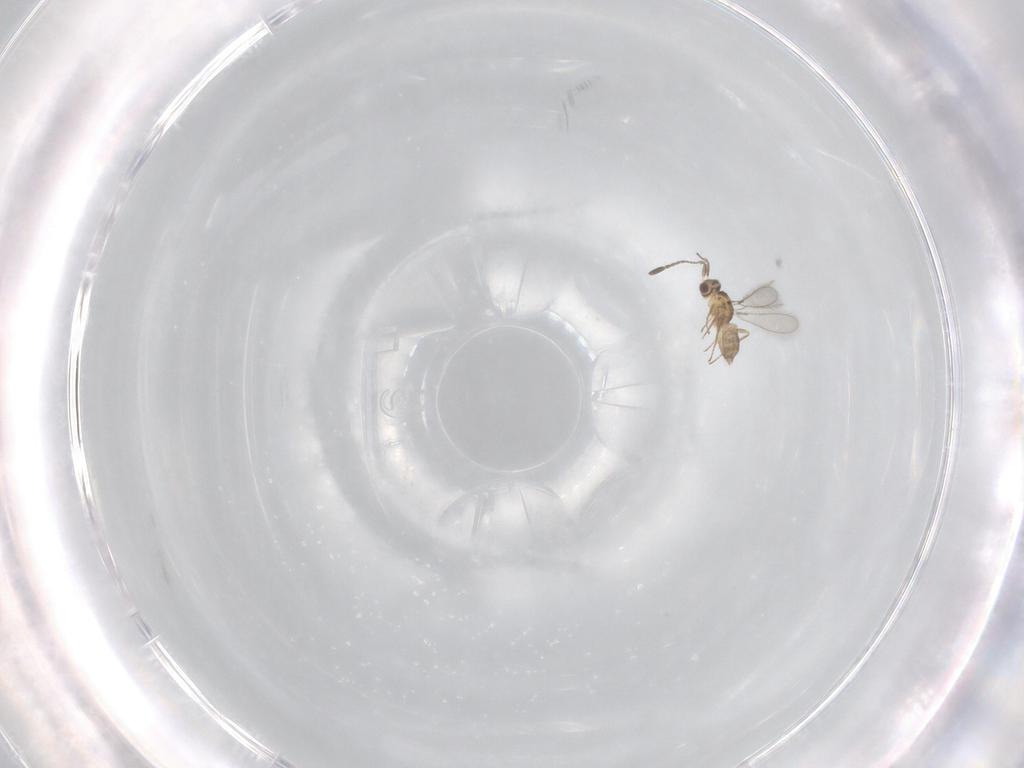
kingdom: Animalia
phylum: Arthropoda
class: Insecta
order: Hymenoptera
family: Mymaridae
